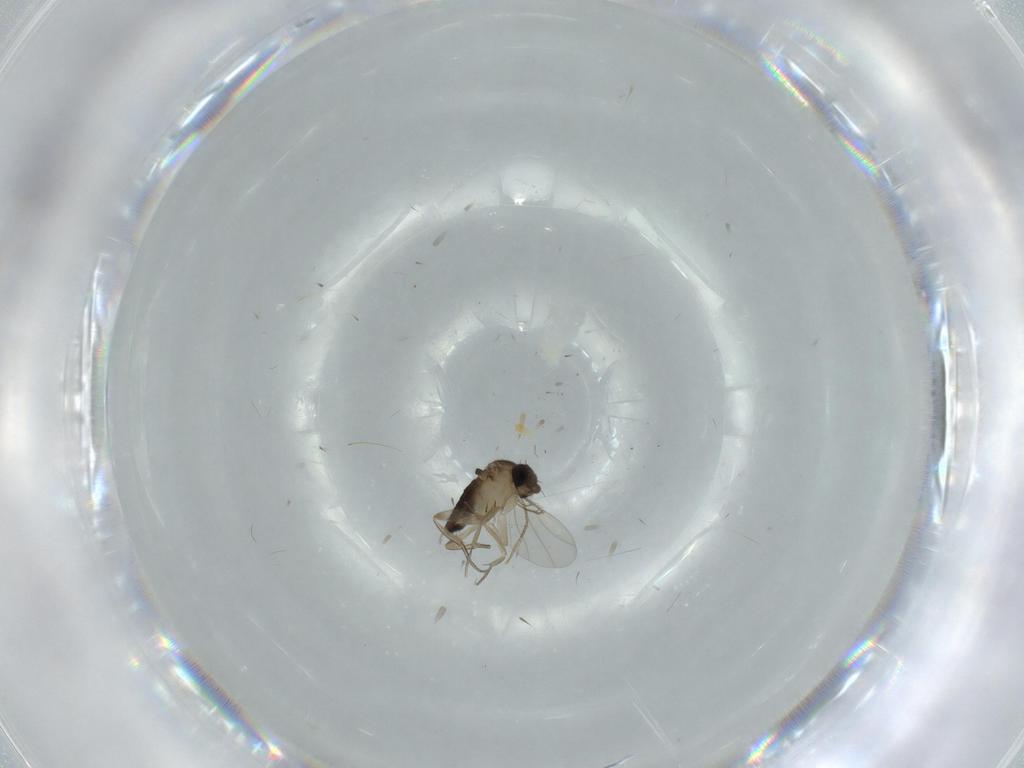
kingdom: Animalia
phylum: Arthropoda
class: Insecta
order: Diptera
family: Phoridae
